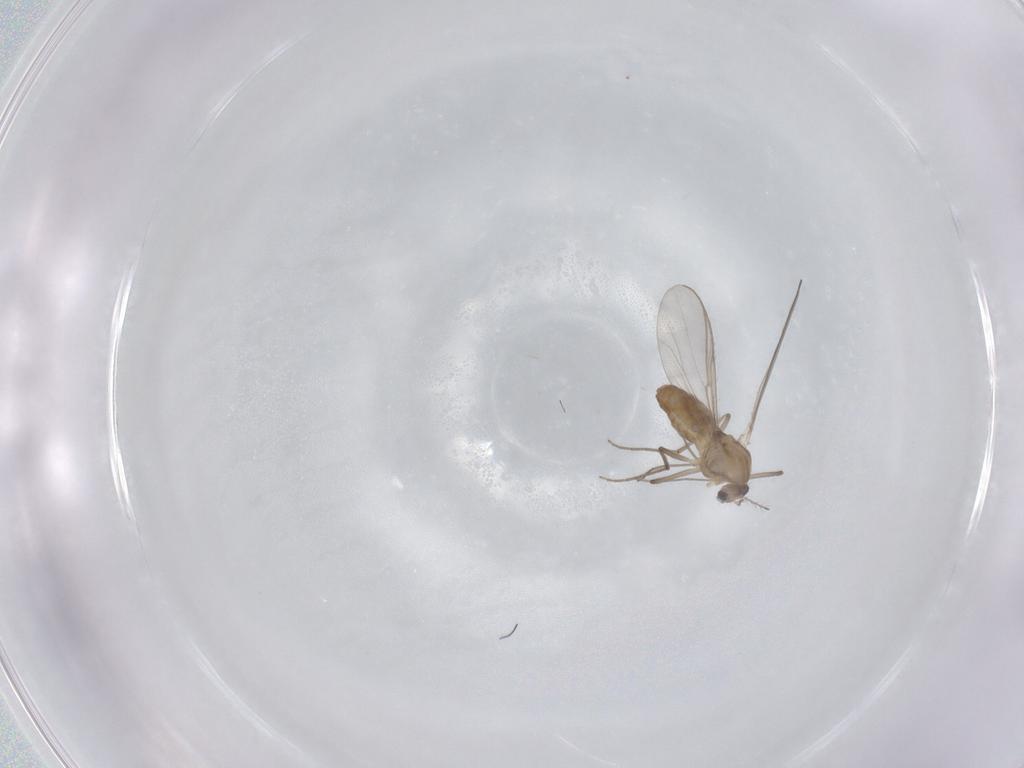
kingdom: Animalia
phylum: Arthropoda
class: Insecta
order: Diptera
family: Chironomidae
